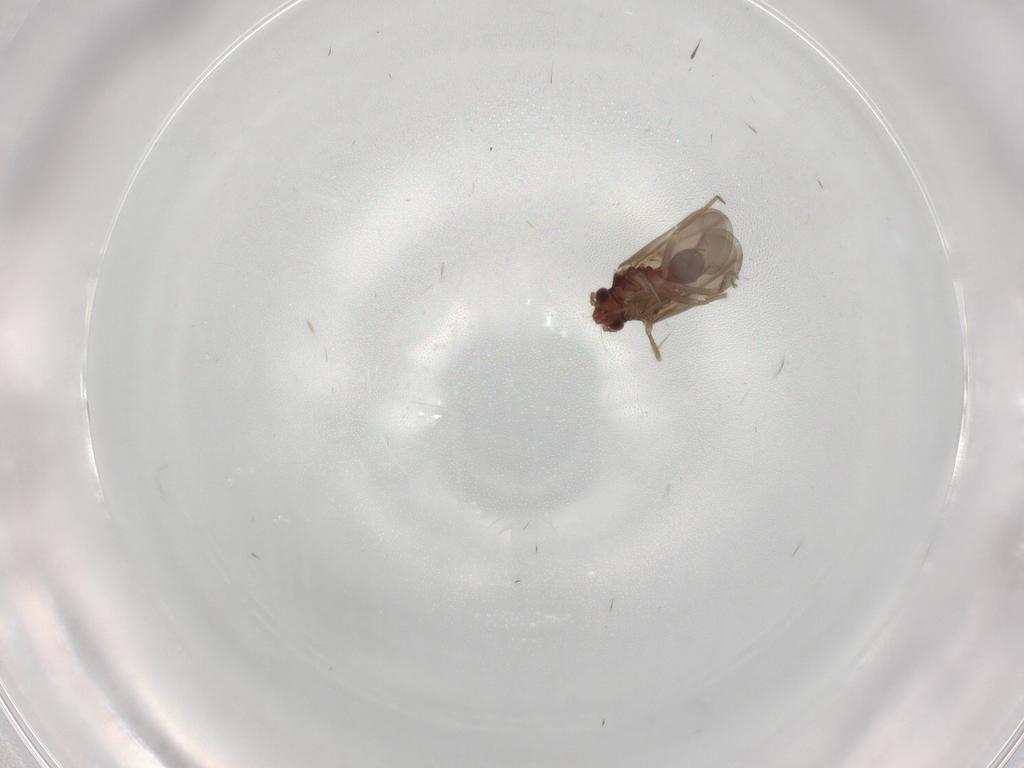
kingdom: Animalia
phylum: Arthropoda
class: Insecta
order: Hemiptera
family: Ceratocombidae
